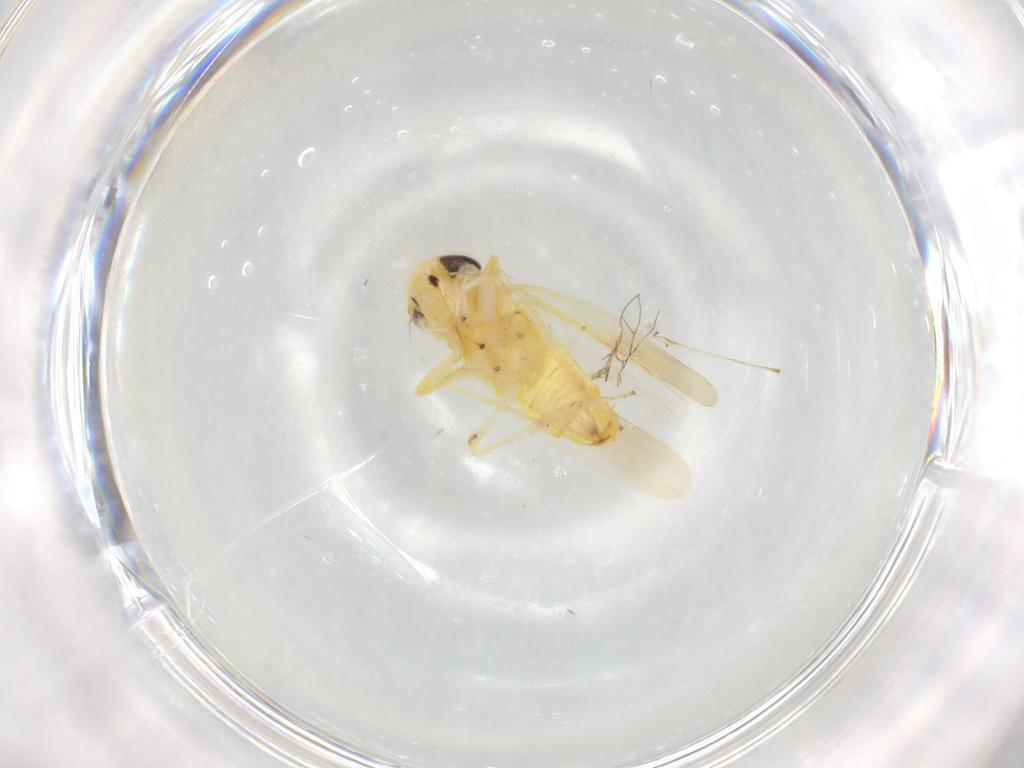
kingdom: Animalia
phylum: Arthropoda
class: Insecta
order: Hemiptera
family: Cicadellidae
